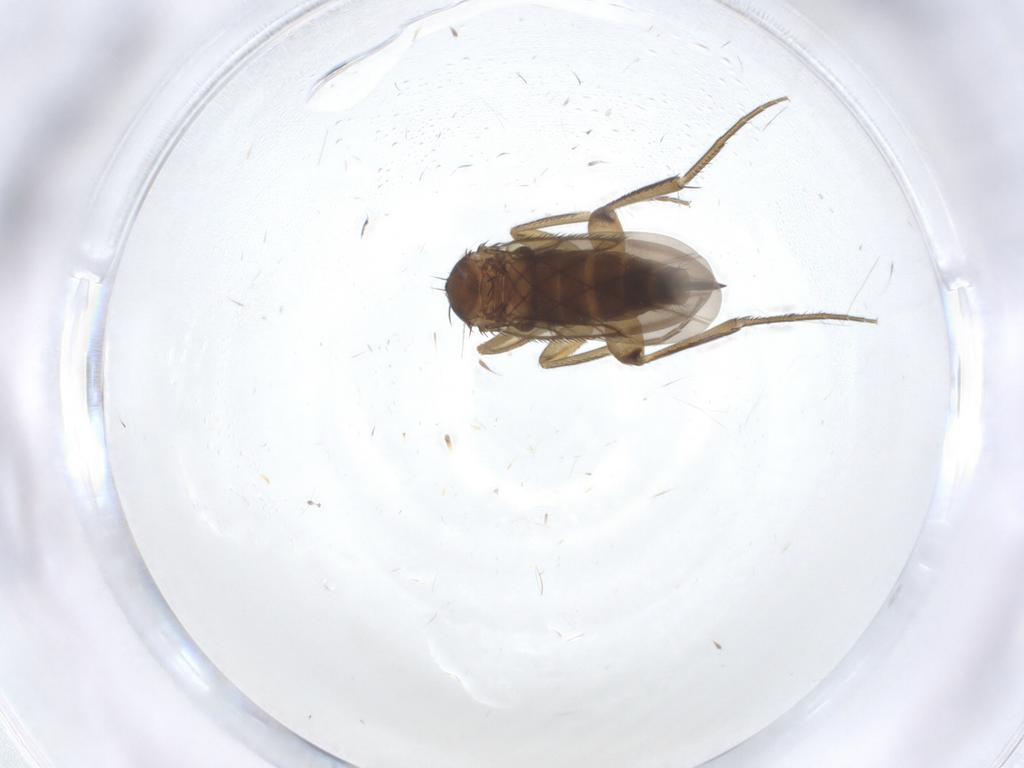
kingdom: Animalia
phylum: Arthropoda
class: Insecta
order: Diptera
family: Phoridae
